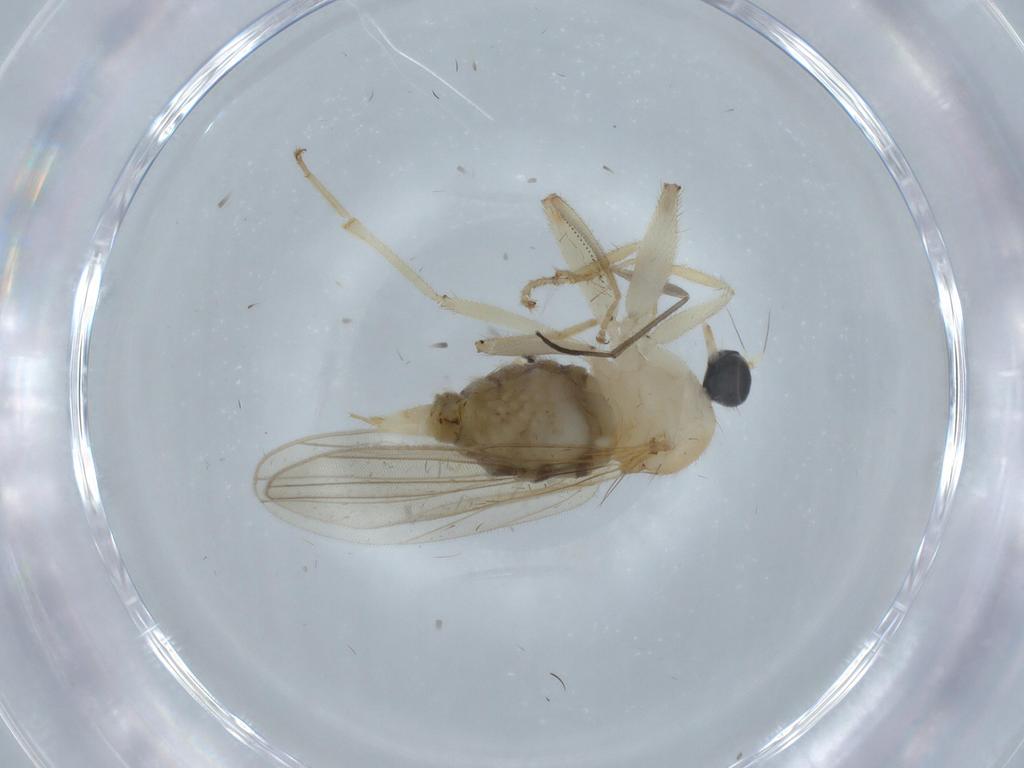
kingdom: Animalia
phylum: Arthropoda
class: Insecta
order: Diptera
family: Hybotidae
